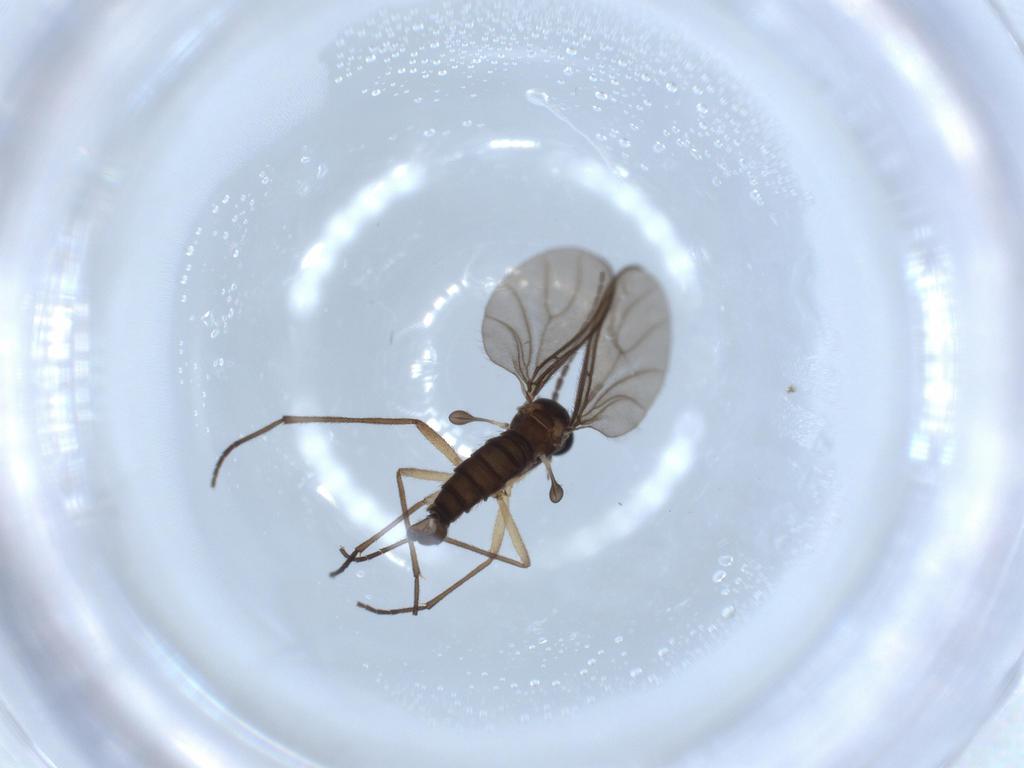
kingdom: Animalia
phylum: Arthropoda
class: Insecta
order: Diptera
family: Sciaridae
